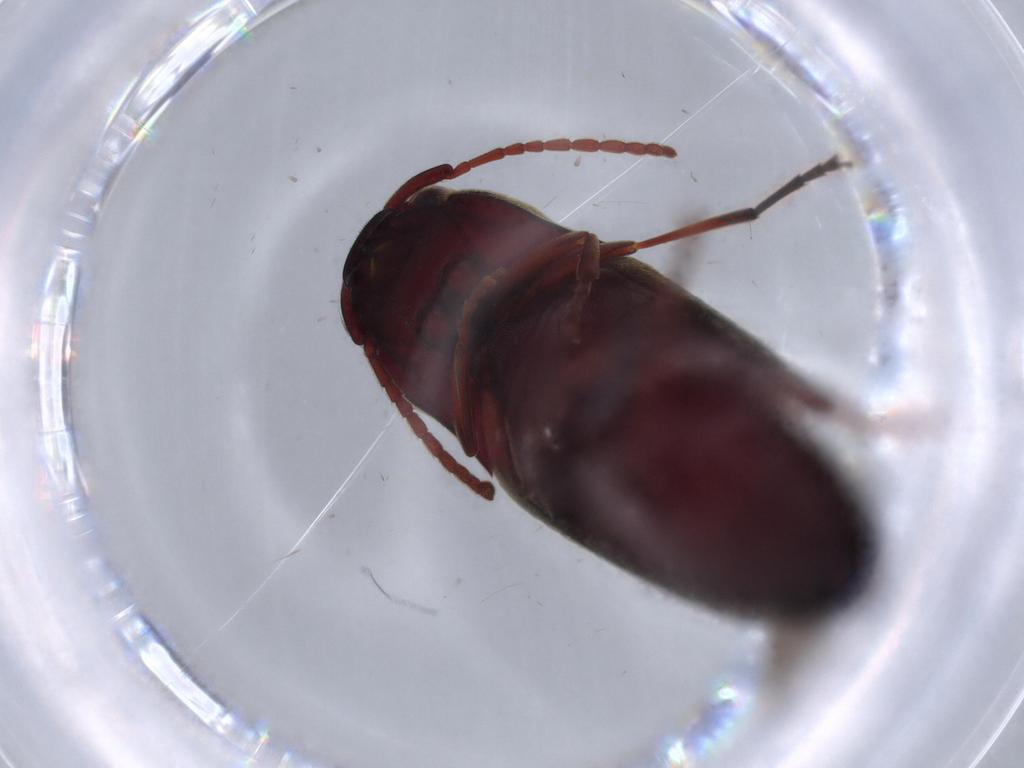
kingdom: Animalia
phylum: Arthropoda
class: Insecta
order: Coleoptera
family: Eucnemidae
